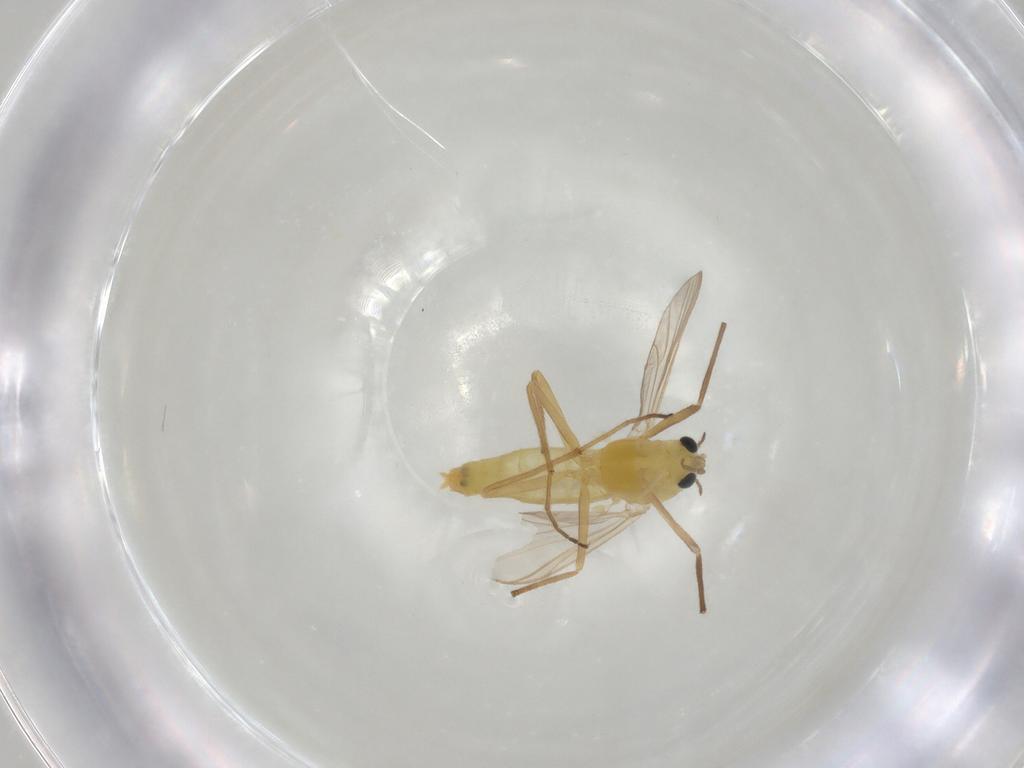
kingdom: Animalia
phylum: Arthropoda
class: Insecta
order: Diptera
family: Chironomidae
